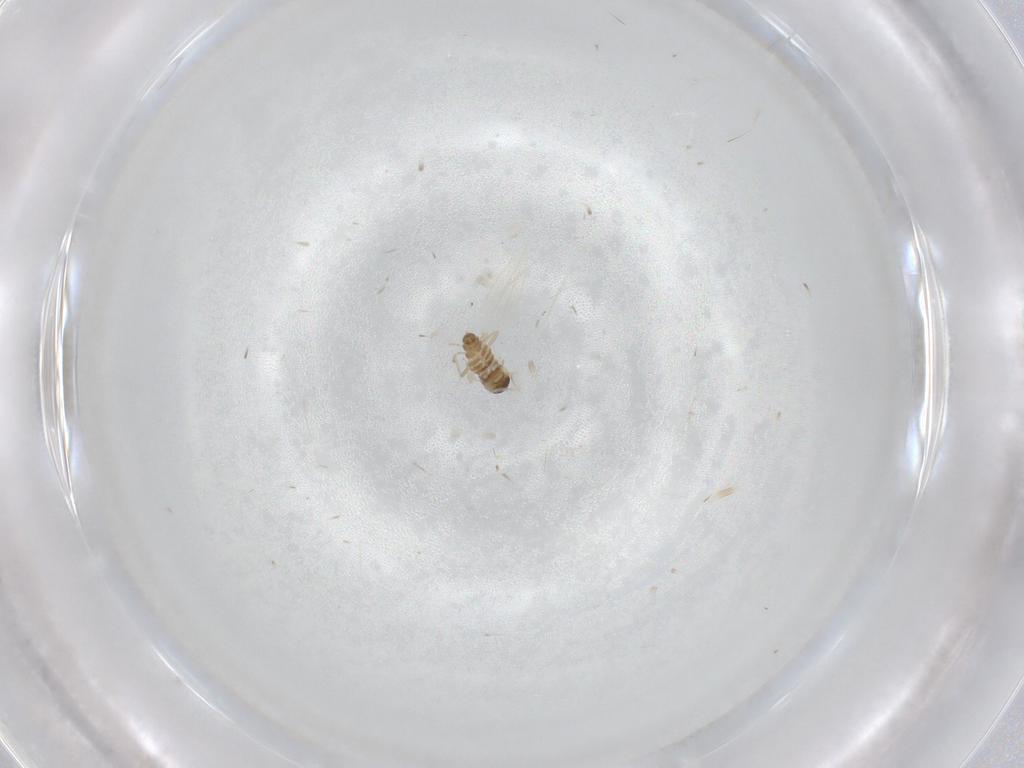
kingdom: Animalia
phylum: Arthropoda
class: Insecta
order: Diptera
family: Cecidomyiidae
